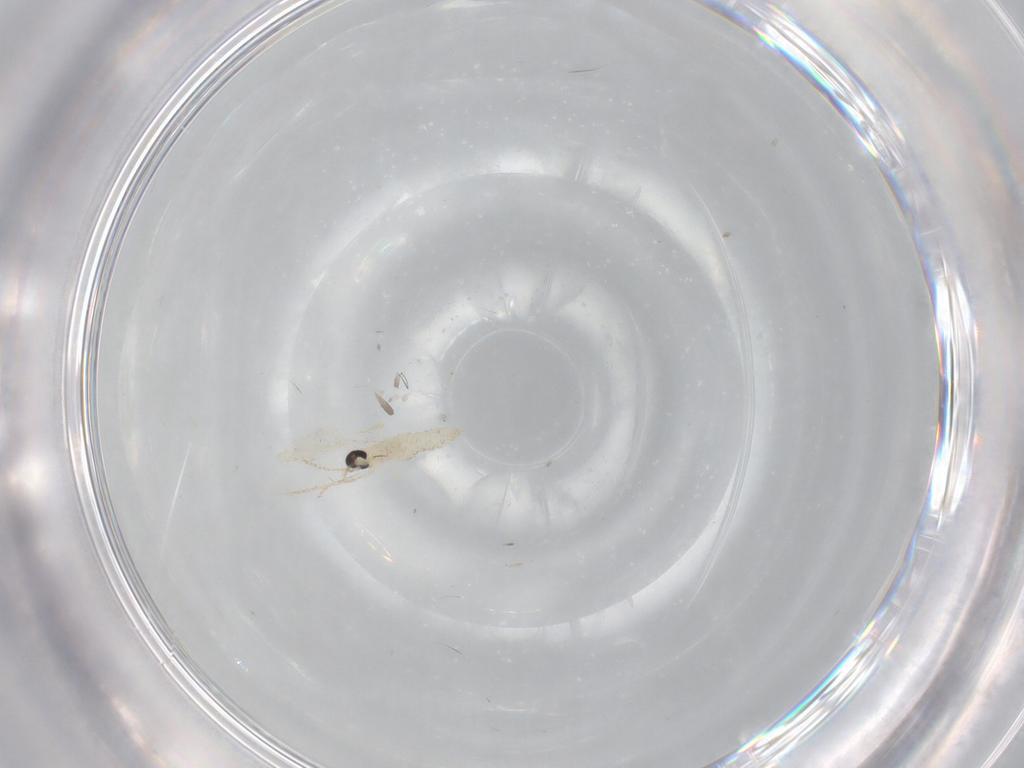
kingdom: Animalia
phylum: Arthropoda
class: Insecta
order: Diptera
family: Cecidomyiidae
